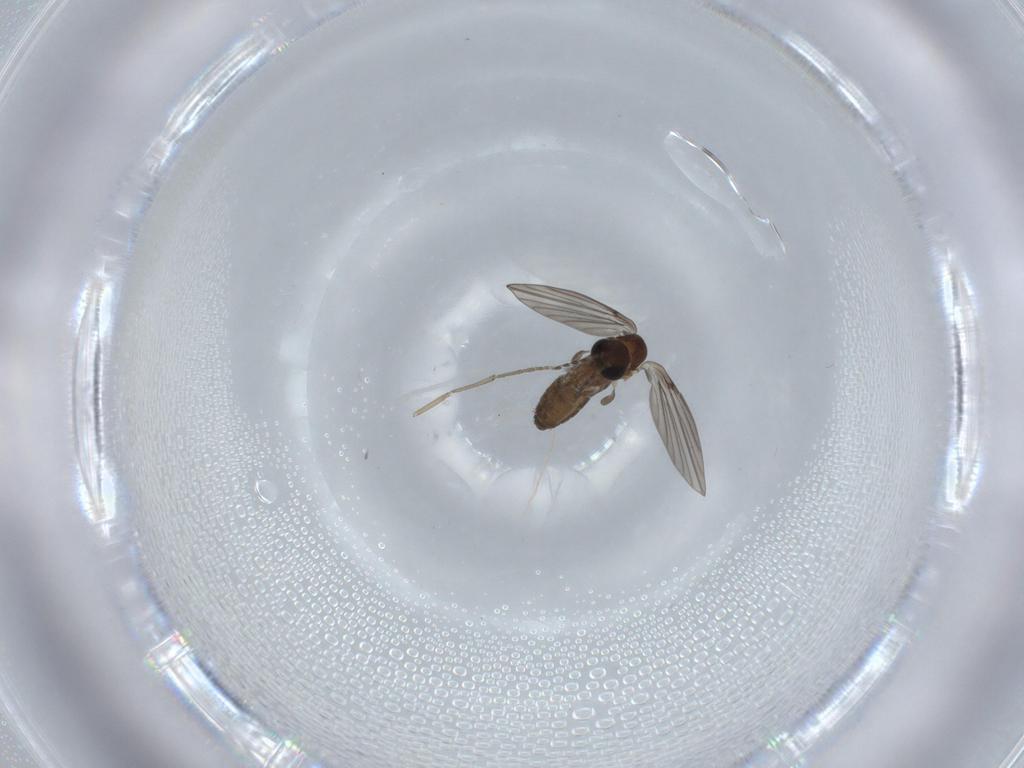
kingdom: Animalia
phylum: Arthropoda
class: Insecta
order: Diptera
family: Psychodidae
